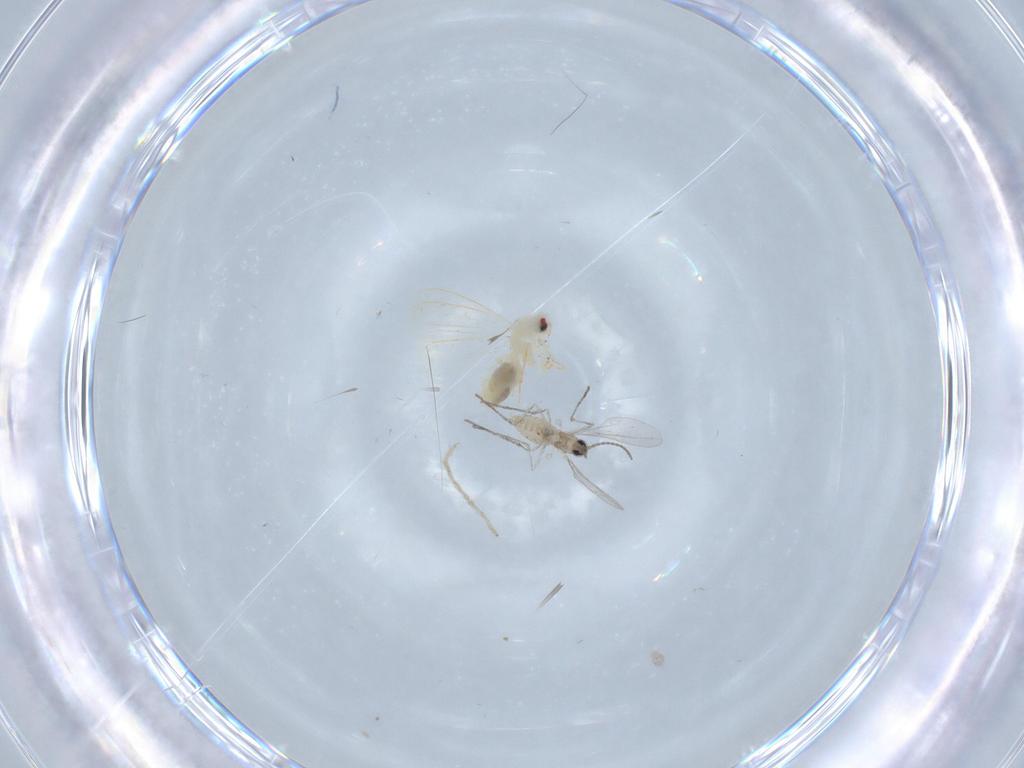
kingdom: Animalia
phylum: Arthropoda
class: Insecta
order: Diptera
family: Cecidomyiidae
